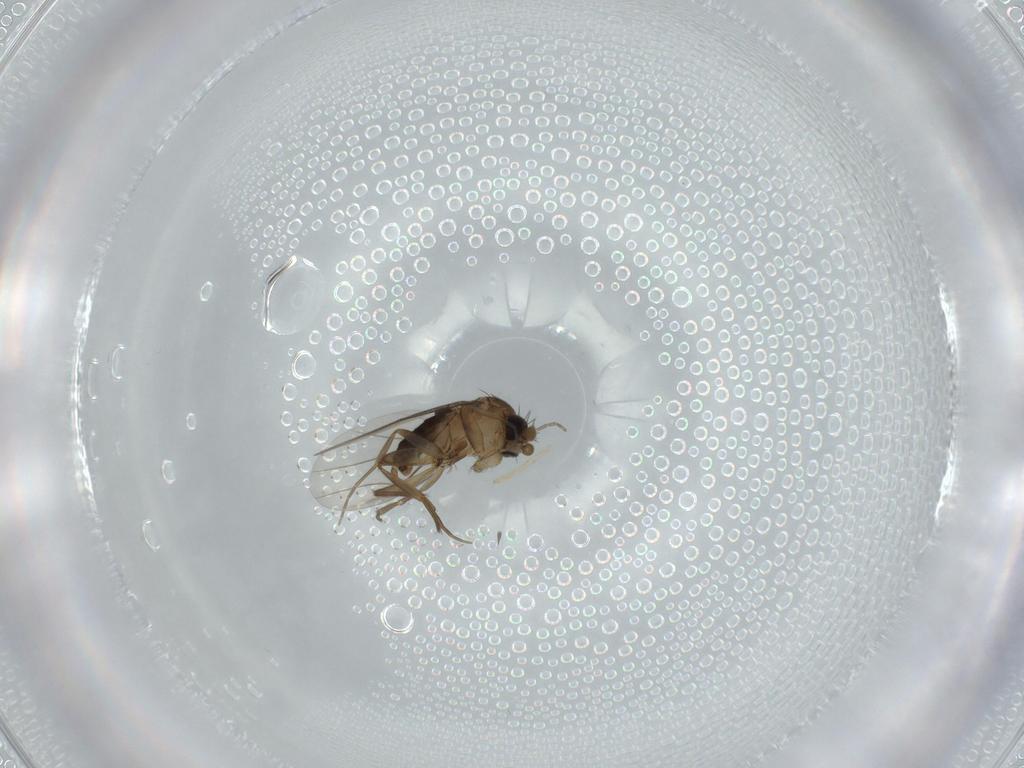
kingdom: Animalia
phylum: Arthropoda
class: Insecta
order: Diptera
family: Phoridae
